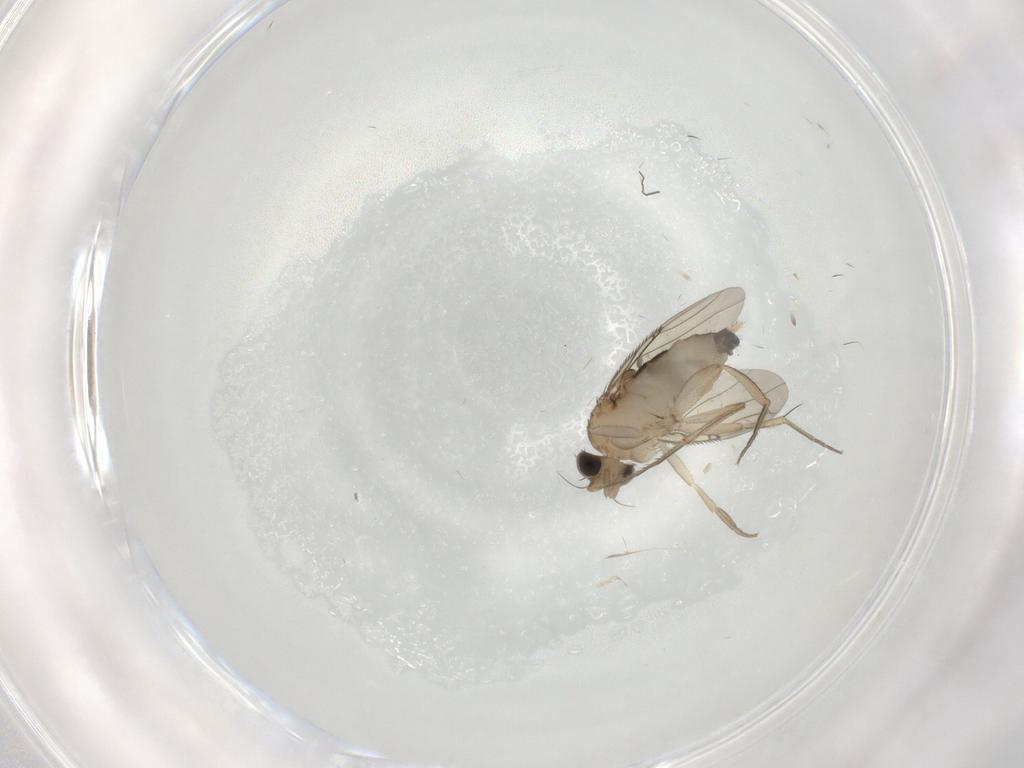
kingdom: Animalia
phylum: Arthropoda
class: Insecta
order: Diptera
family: Phoridae
